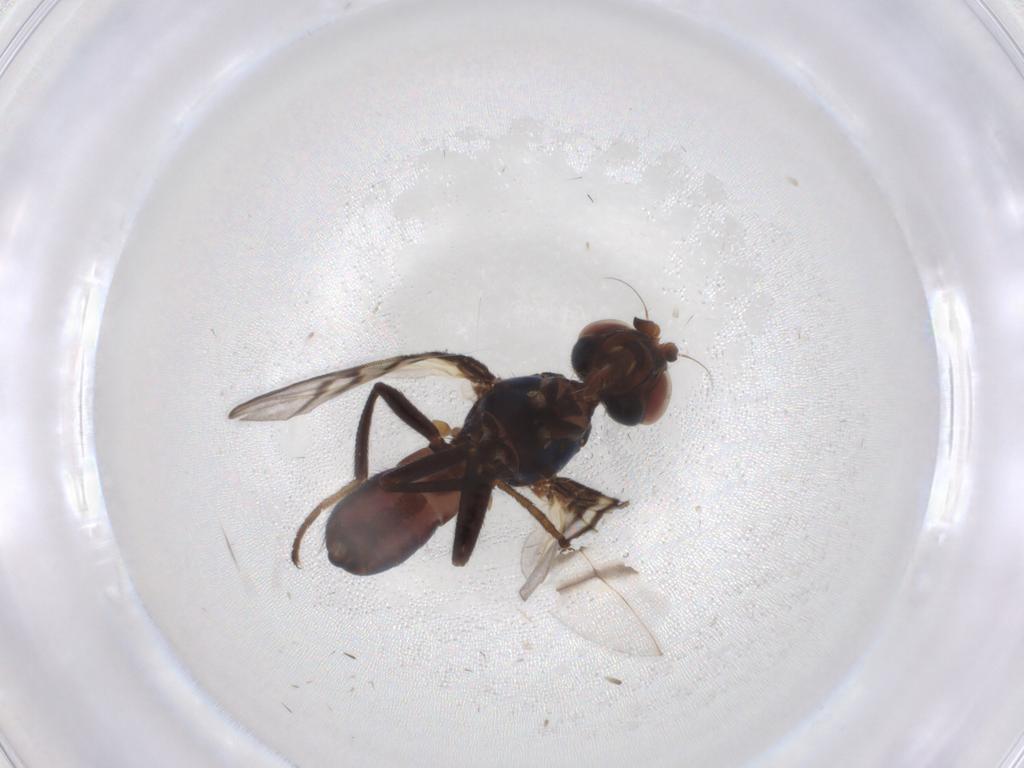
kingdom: Animalia
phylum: Arthropoda
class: Insecta
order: Diptera
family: Platystomatidae
